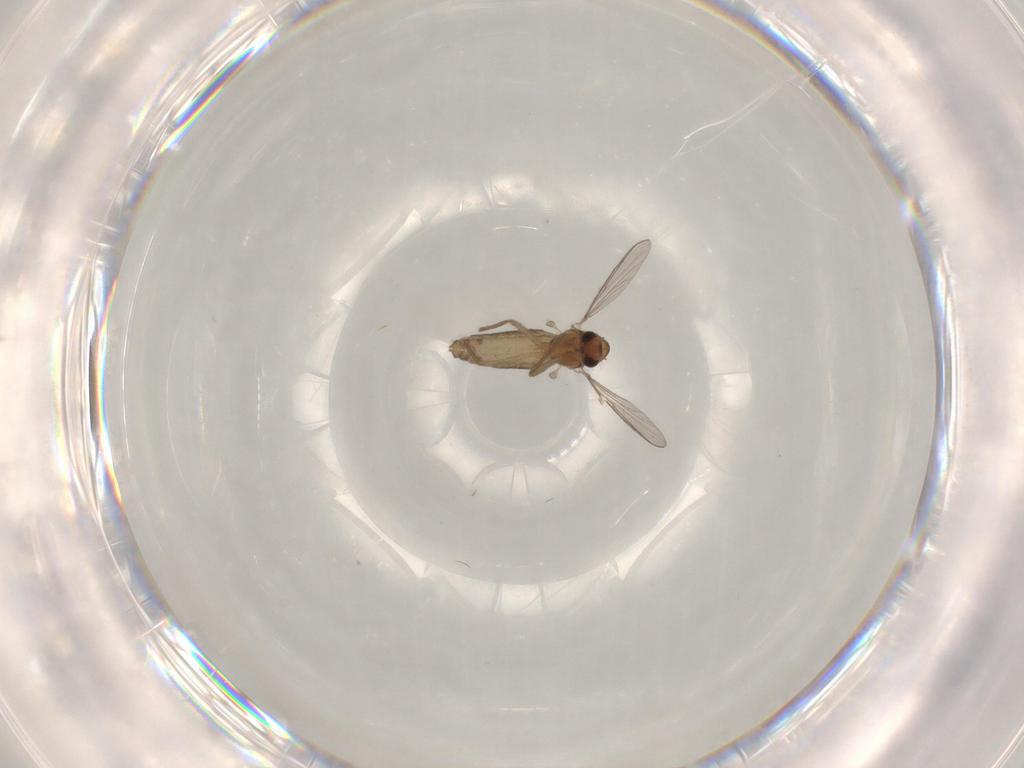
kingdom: Animalia
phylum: Arthropoda
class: Insecta
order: Diptera
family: Chironomidae
